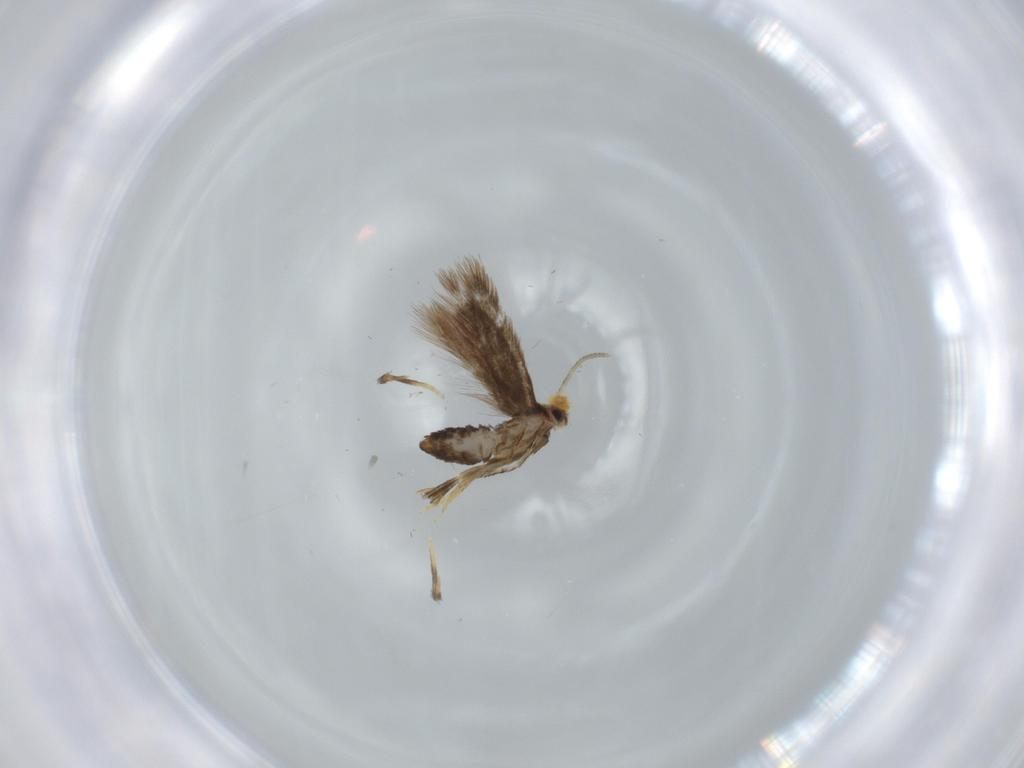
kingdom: Animalia
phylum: Arthropoda
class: Insecta
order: Lepidoptera
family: Nepticulidae
